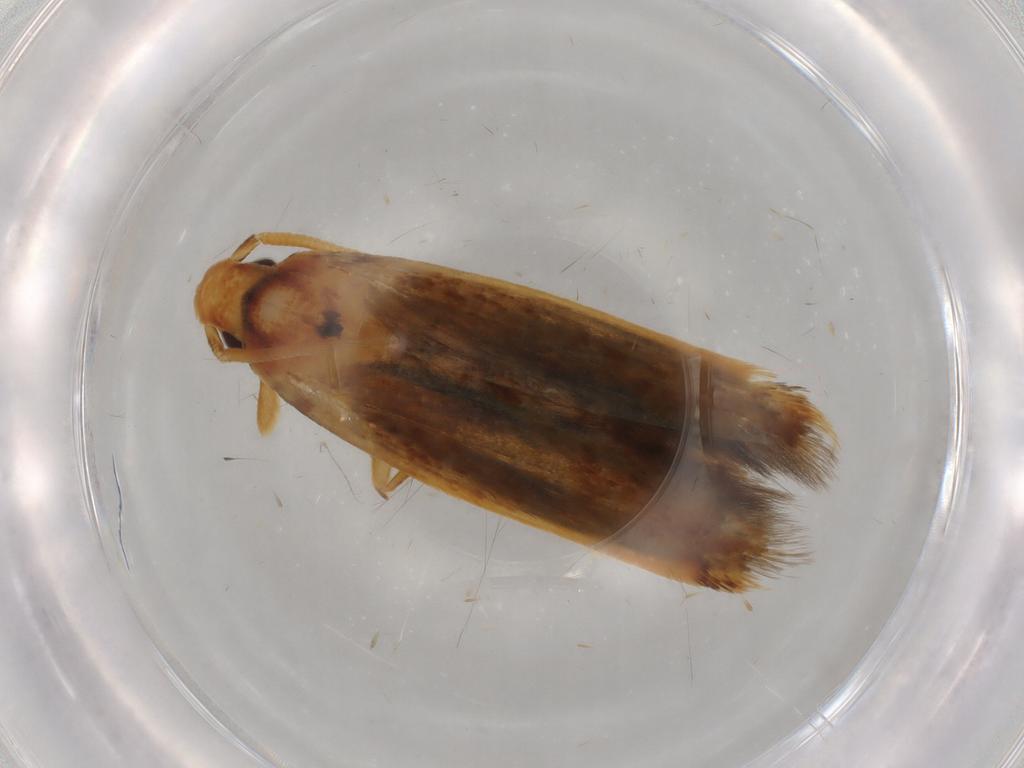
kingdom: Animalia
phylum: Arthropoda
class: Insecta
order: Lepidoptera
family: Tineidae
